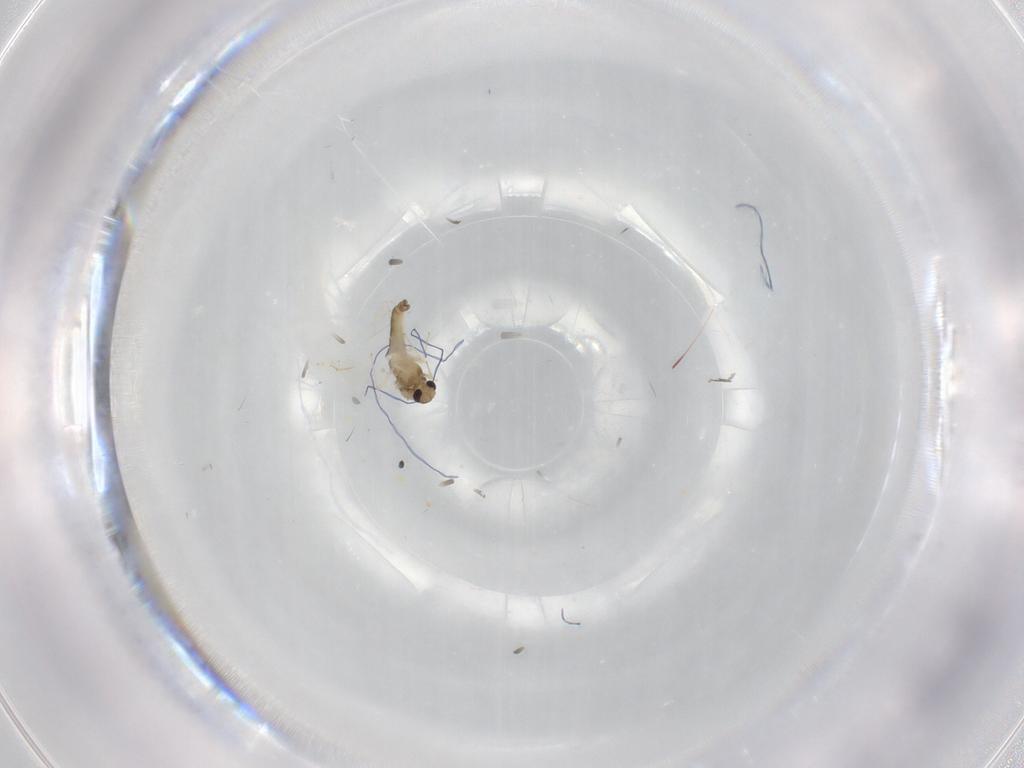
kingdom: Animalia
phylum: Arthropoda
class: Insecta
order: Diptera
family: Chironomidae
